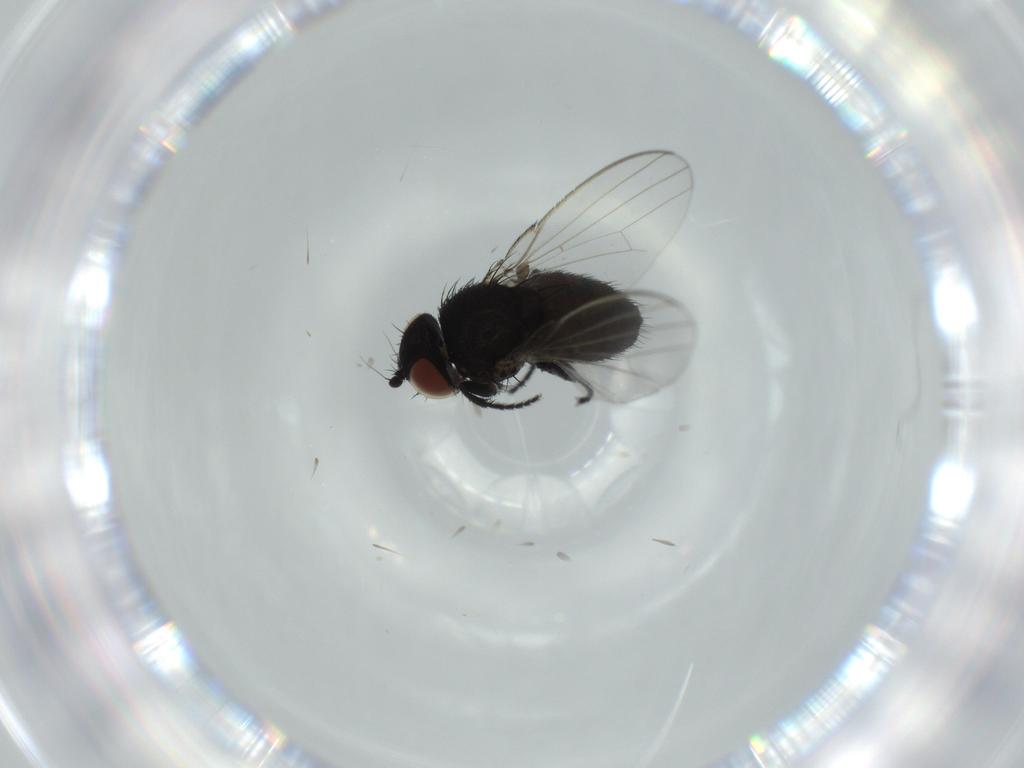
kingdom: Animalia
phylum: Arthropoda
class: Insecta
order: Diptera
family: Milichiidae
